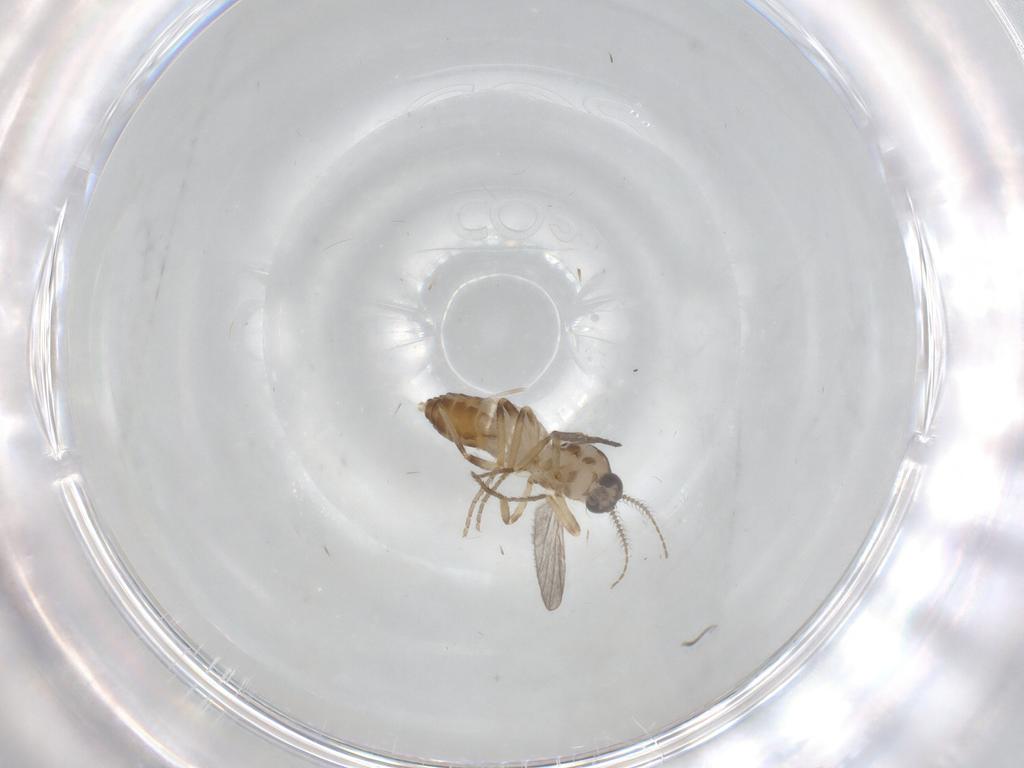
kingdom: Animalia
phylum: Arthropoda
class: Insecta
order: Diptera
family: Ceratopogonidae
